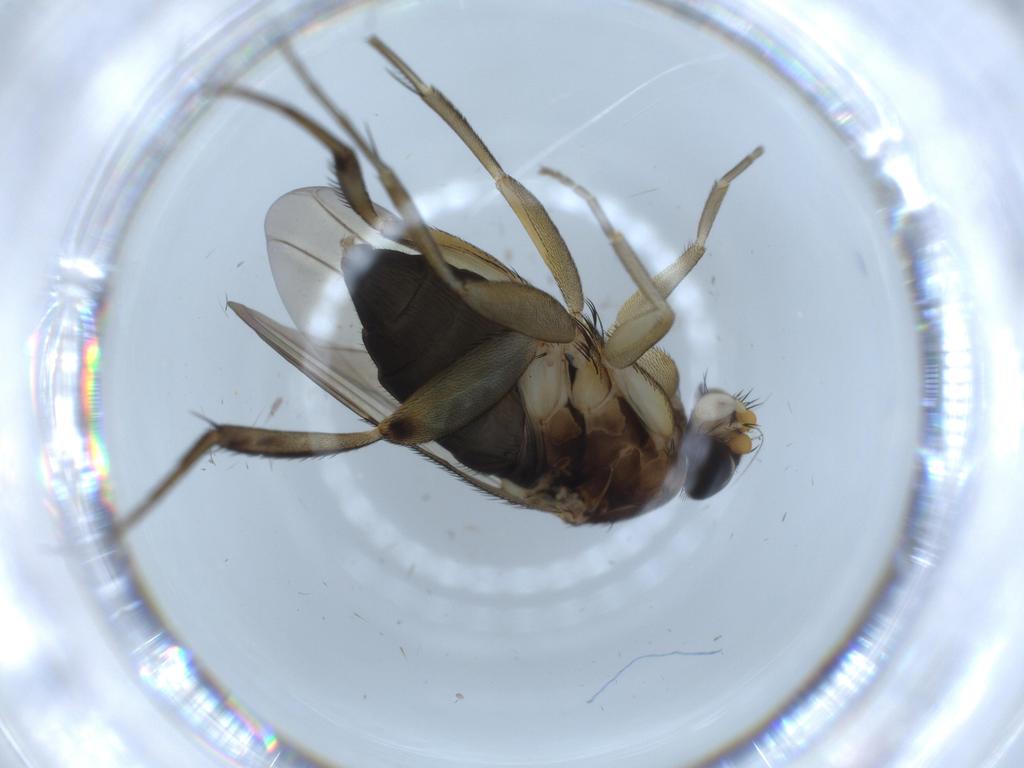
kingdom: Animalia
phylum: Arthropoda
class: Insecta
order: Diptera
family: Phoridae
